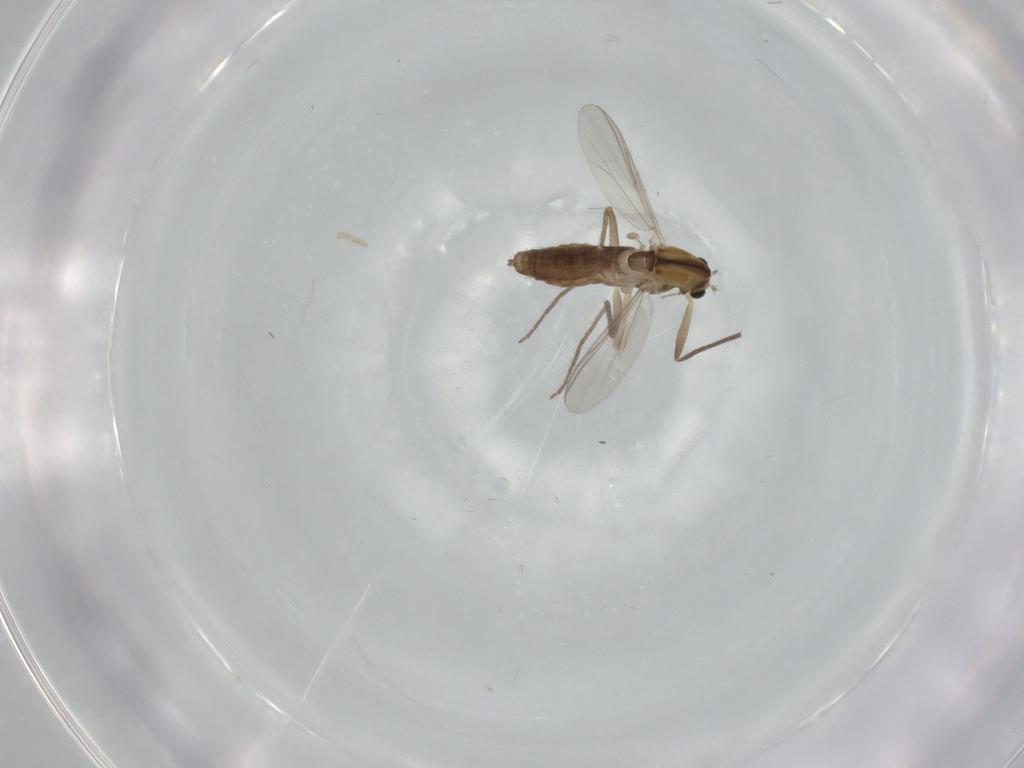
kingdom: Animalia
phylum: Arthropoda
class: Insecta
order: Diptera
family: Chironomidae
